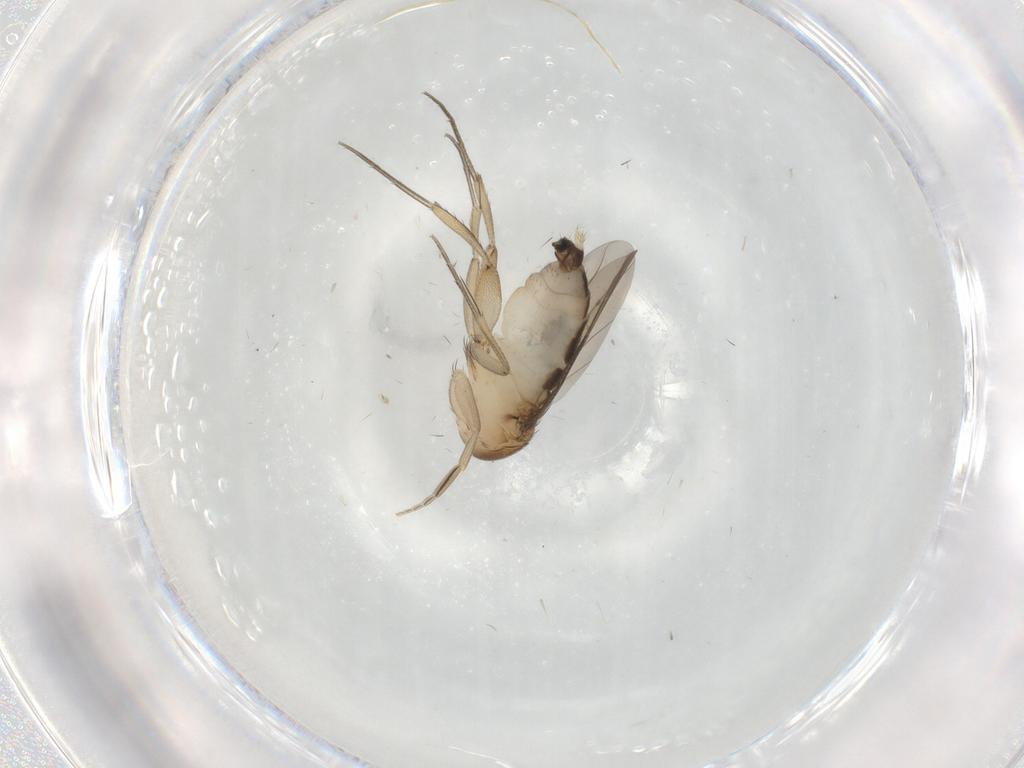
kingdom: Animalia
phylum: Arthropoda
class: Insecta
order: Diptera
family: Phoridae
